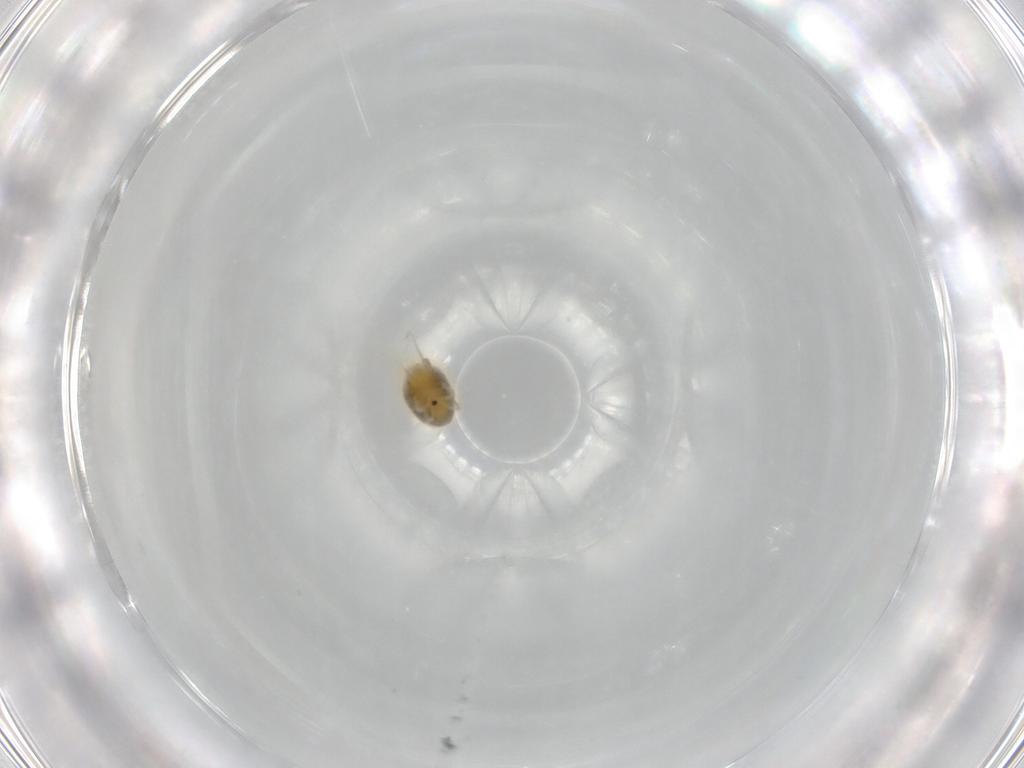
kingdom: Animalia
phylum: Arthropoda
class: Arachnida
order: Trombidiformes
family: Tetranychidae
